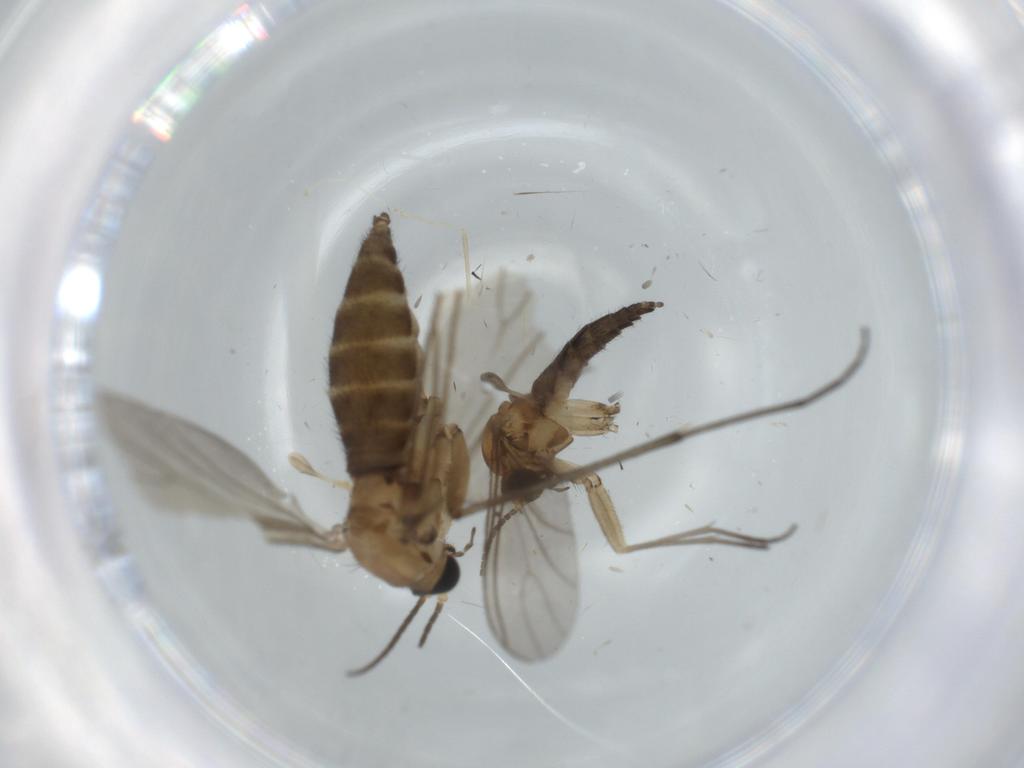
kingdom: Animalia
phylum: Arthropoda
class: Insecta
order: Diptera
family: Sciaridae
